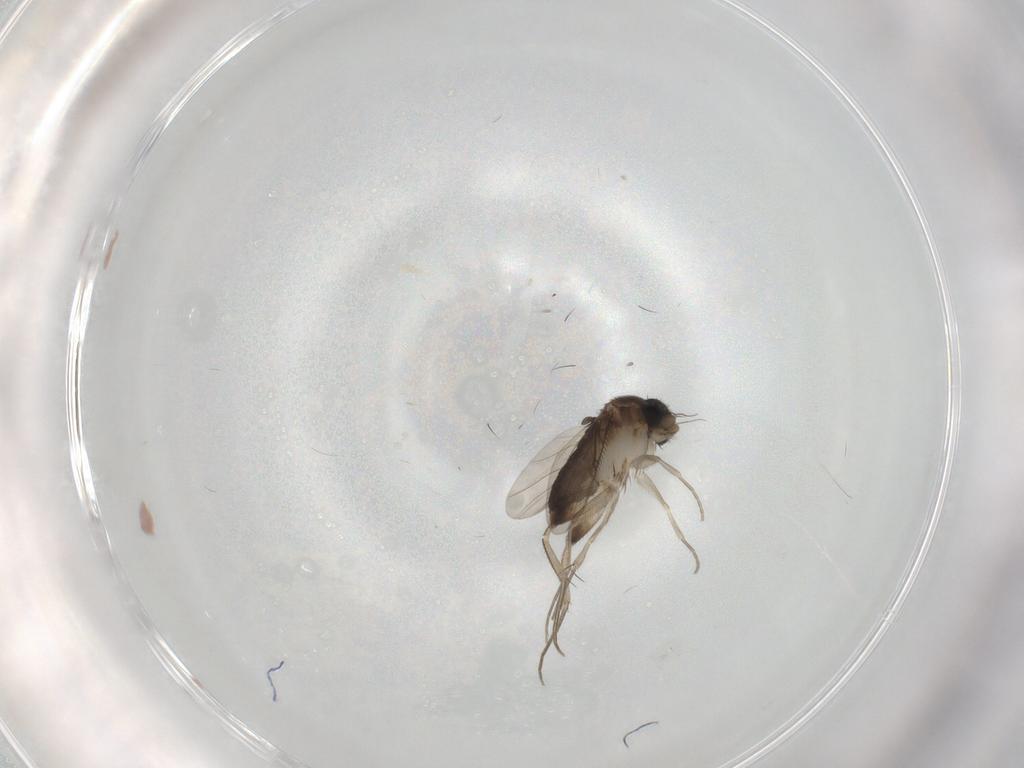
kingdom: Animalia
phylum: Arthropoda
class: Insecta
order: Diptera
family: Phoridae
